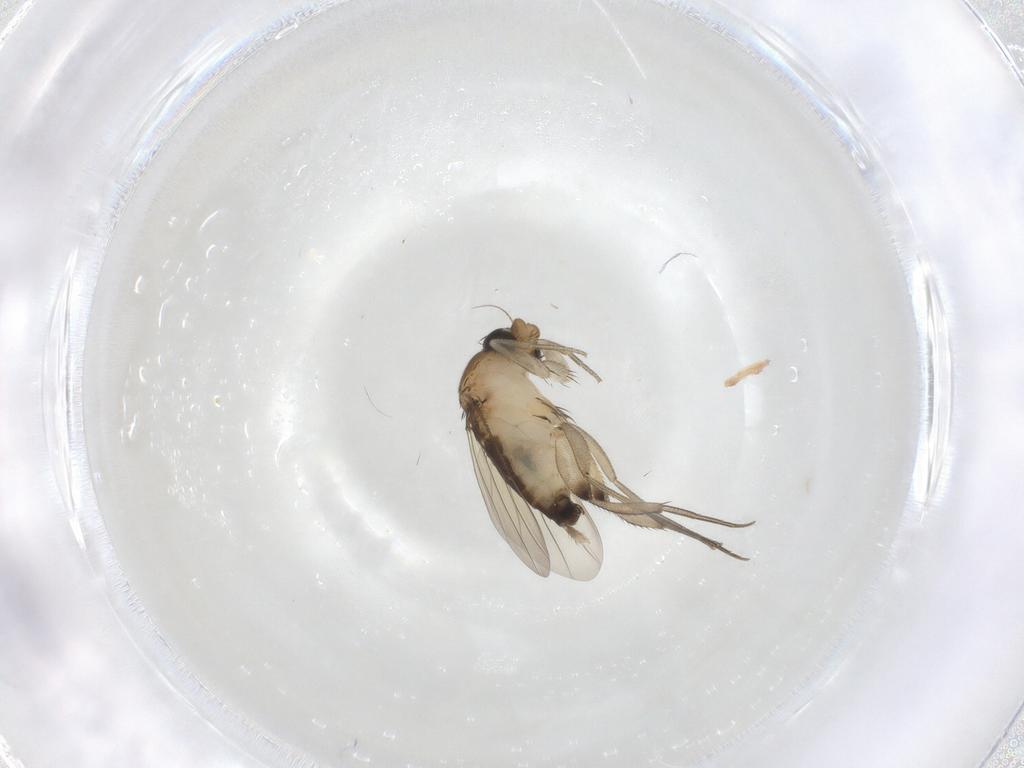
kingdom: Animalia
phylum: Arthropoda
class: Insecta
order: Diptera
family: Phoridae
